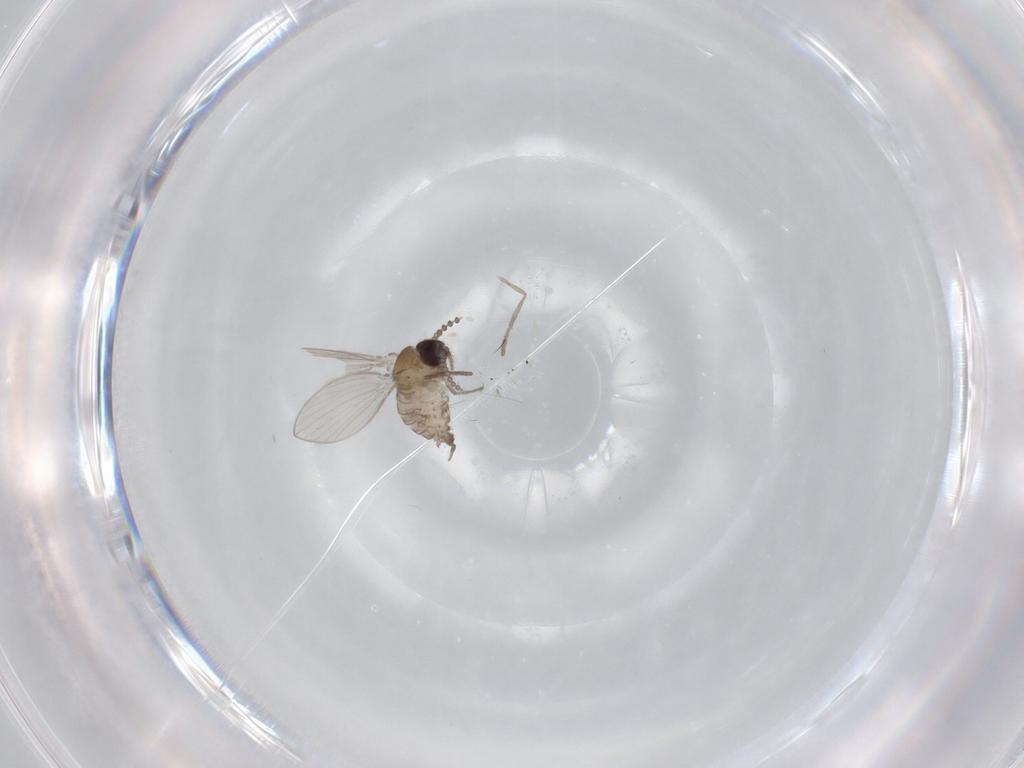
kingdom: Animalia
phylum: Arthropoda
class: Insecta
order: Diptera
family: Psychodidae
